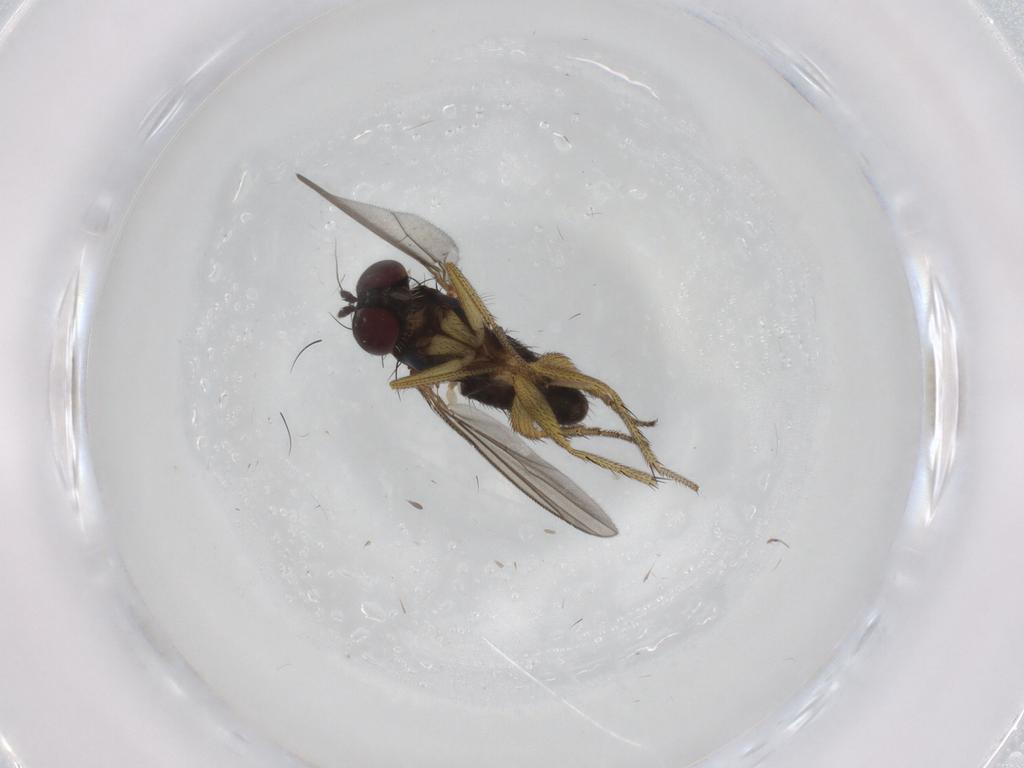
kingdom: Animalia
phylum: Arthropoda
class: Insecta
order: Diptera
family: Dolichopodidae
